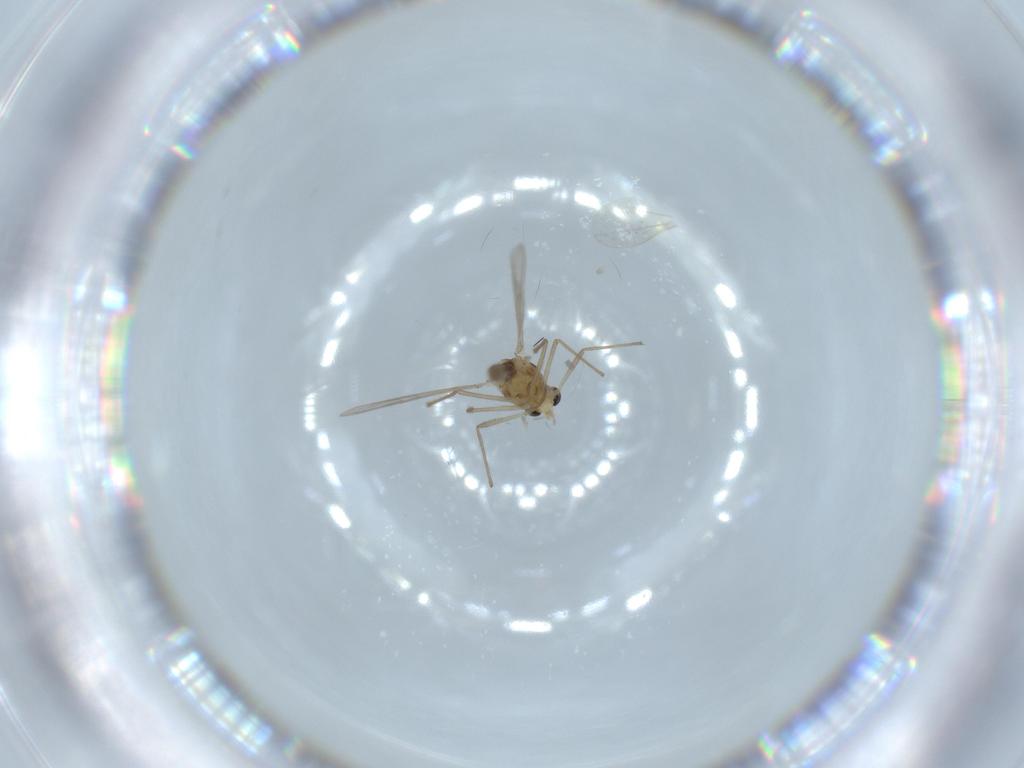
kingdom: Animalia
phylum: Arthropoda
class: Insecta
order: Diptera
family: Chironomidae
